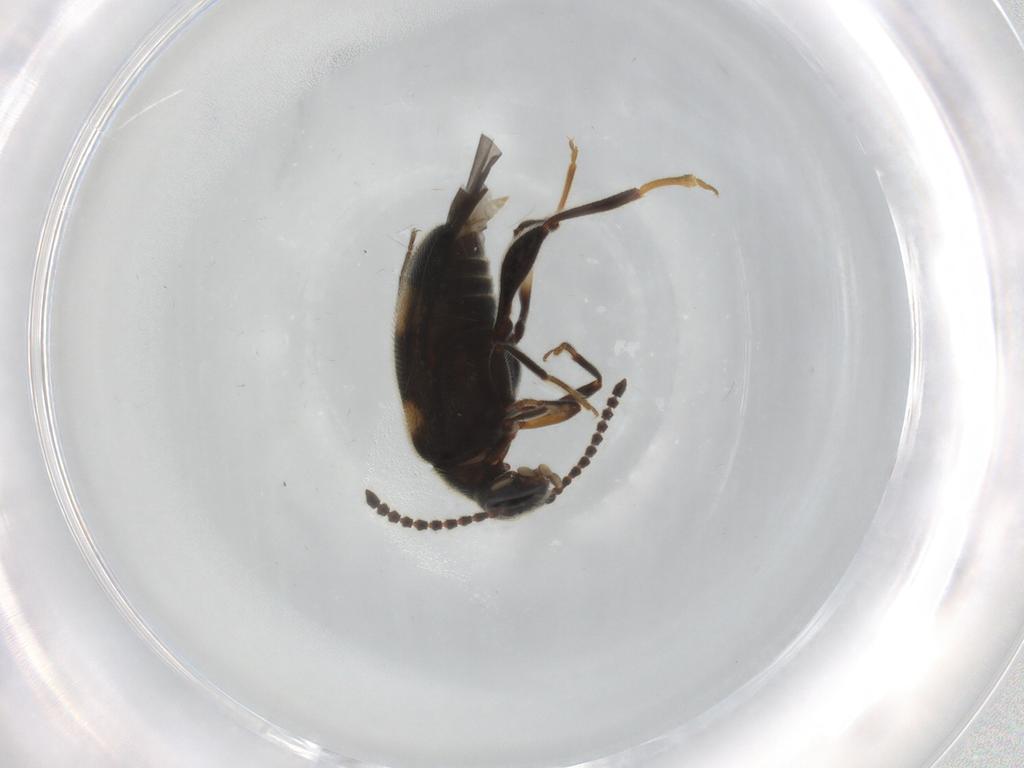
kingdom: Animalia
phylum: Arthropoda
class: Insecta
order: Coleoptera
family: Aderidae
